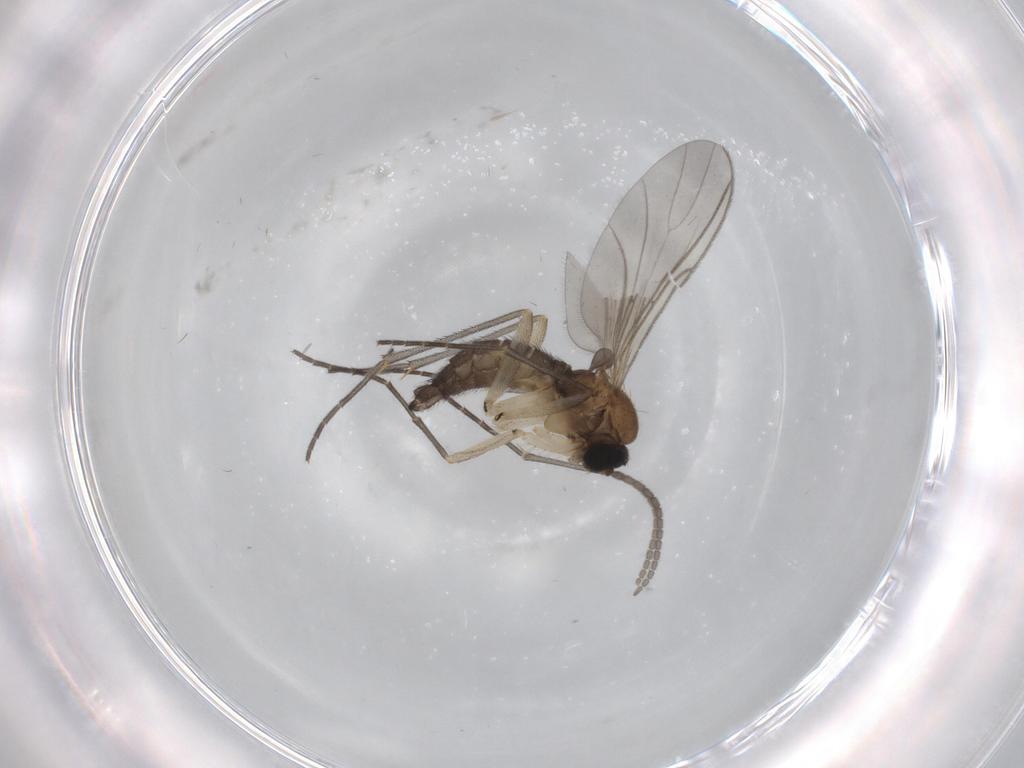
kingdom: Animalia
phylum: Arthropoda
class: Insecta
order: Diptera
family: Sciaridae
